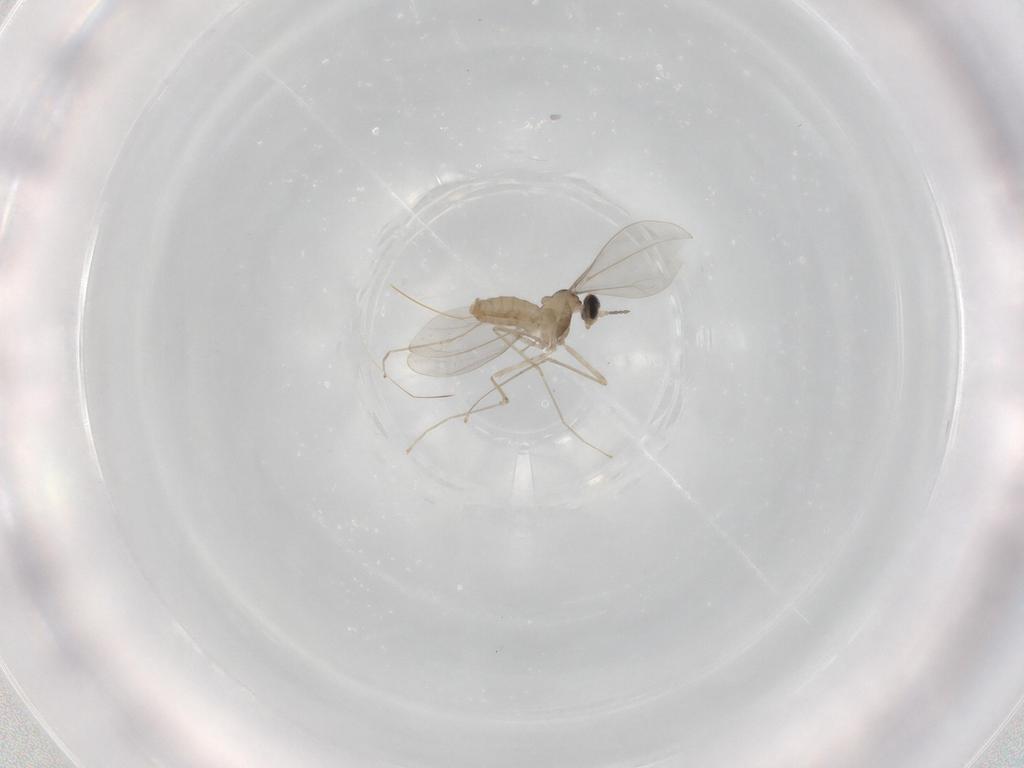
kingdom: Animalia
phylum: Arthropoda
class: Insecta
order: Diptera
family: Cecidomyiidae
